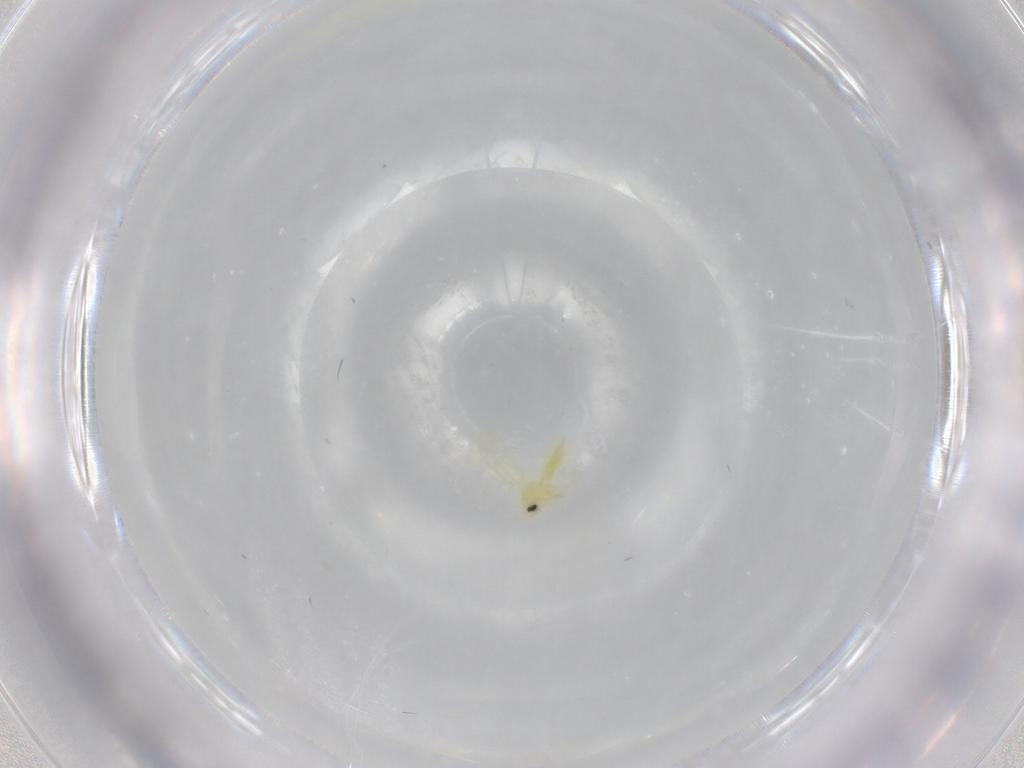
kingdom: Animalia
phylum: Arthropoda
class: Insecta
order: Hemiptera
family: Aleyrodidae
